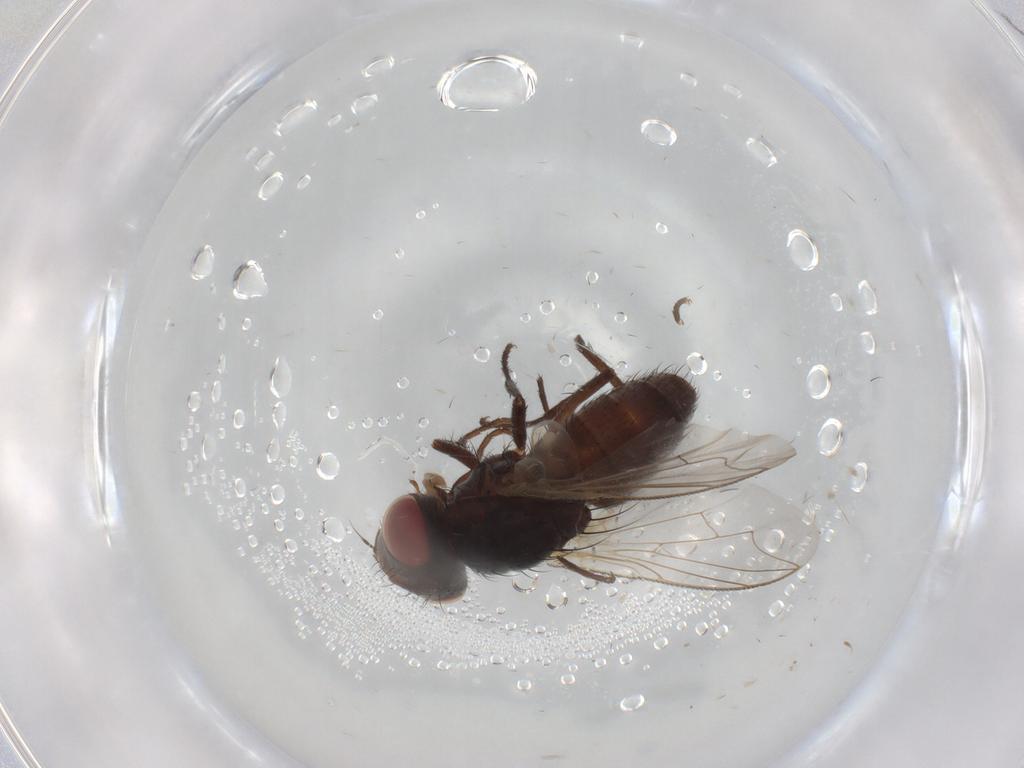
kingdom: Animalia
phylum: Arthropoda
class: Insecta
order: Diptera
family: Sarcophagidae
